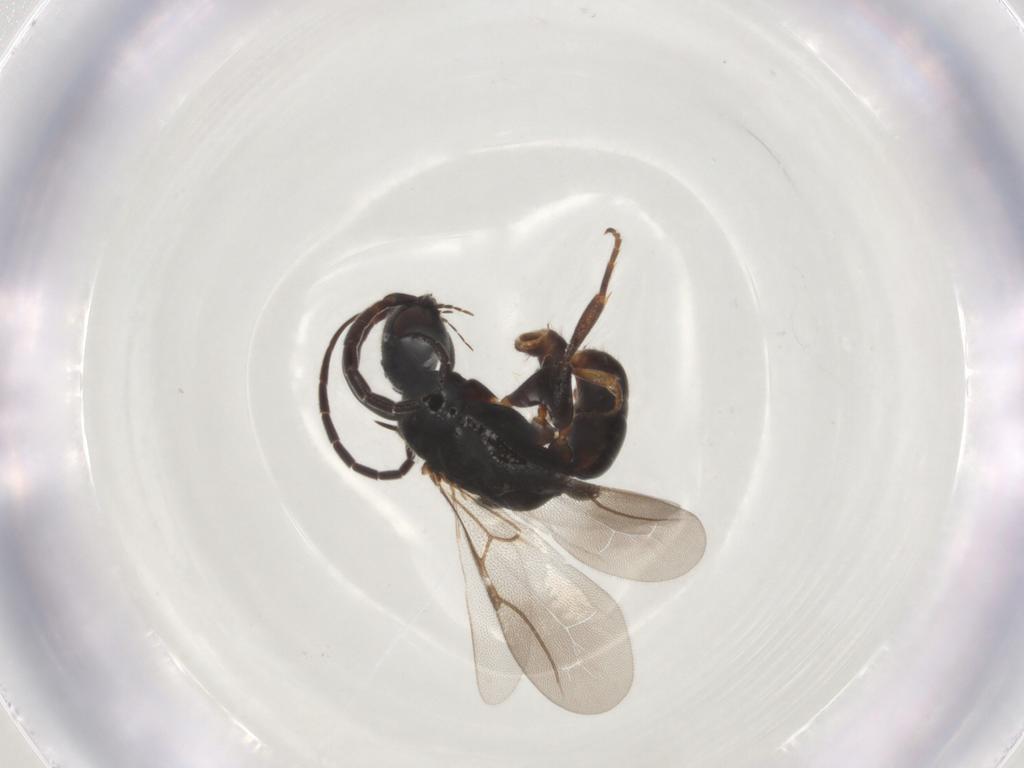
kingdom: Animalia
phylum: Arthropoda
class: Insecta
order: Hymenoptera
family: Bethylidae
